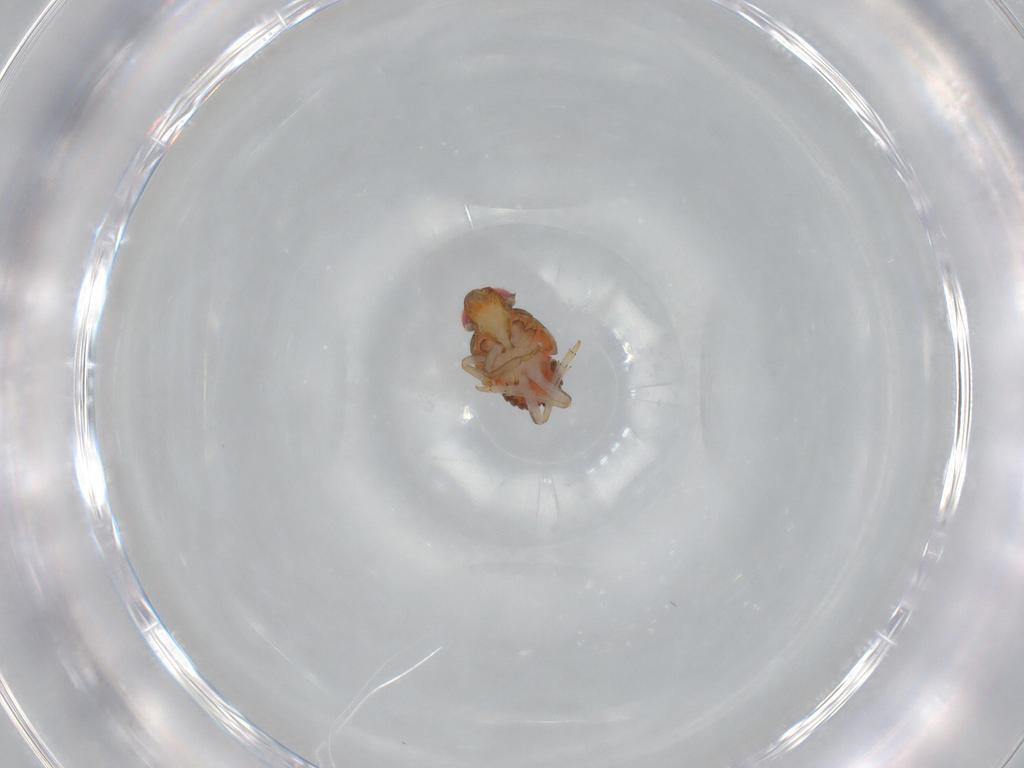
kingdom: Animalia
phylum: Arthropoda
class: Insecta
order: Hemiptera
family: Issidae
